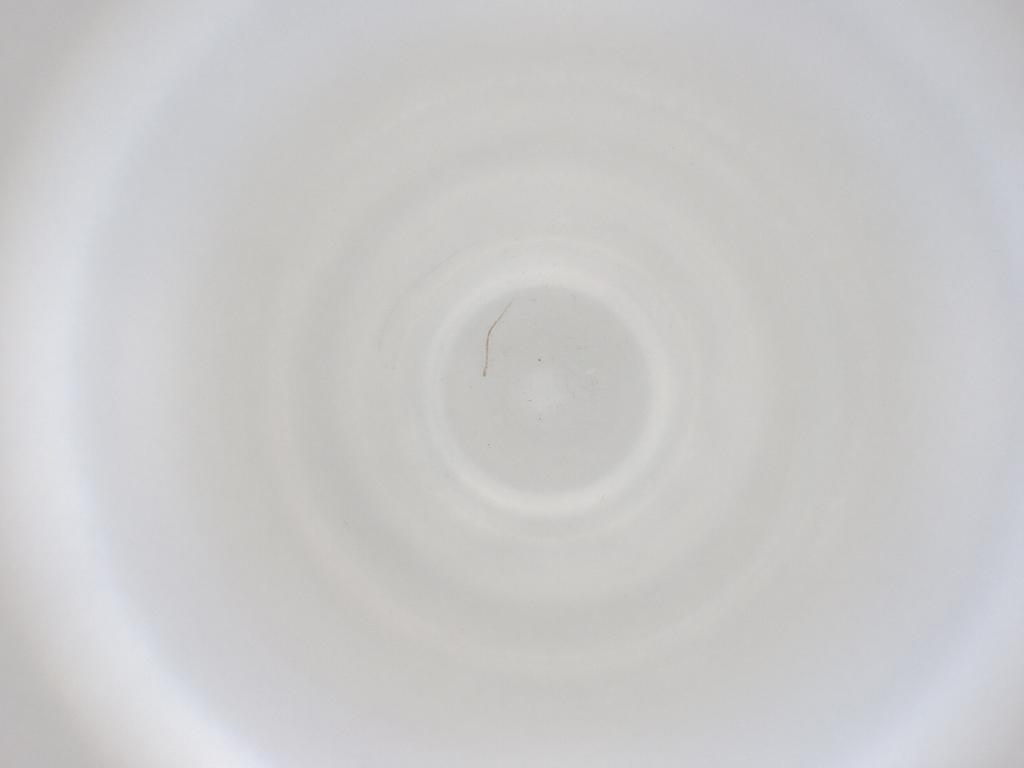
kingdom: Animalia
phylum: Arthropoda
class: Insecta
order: Diptera
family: Cecidomyiidae
